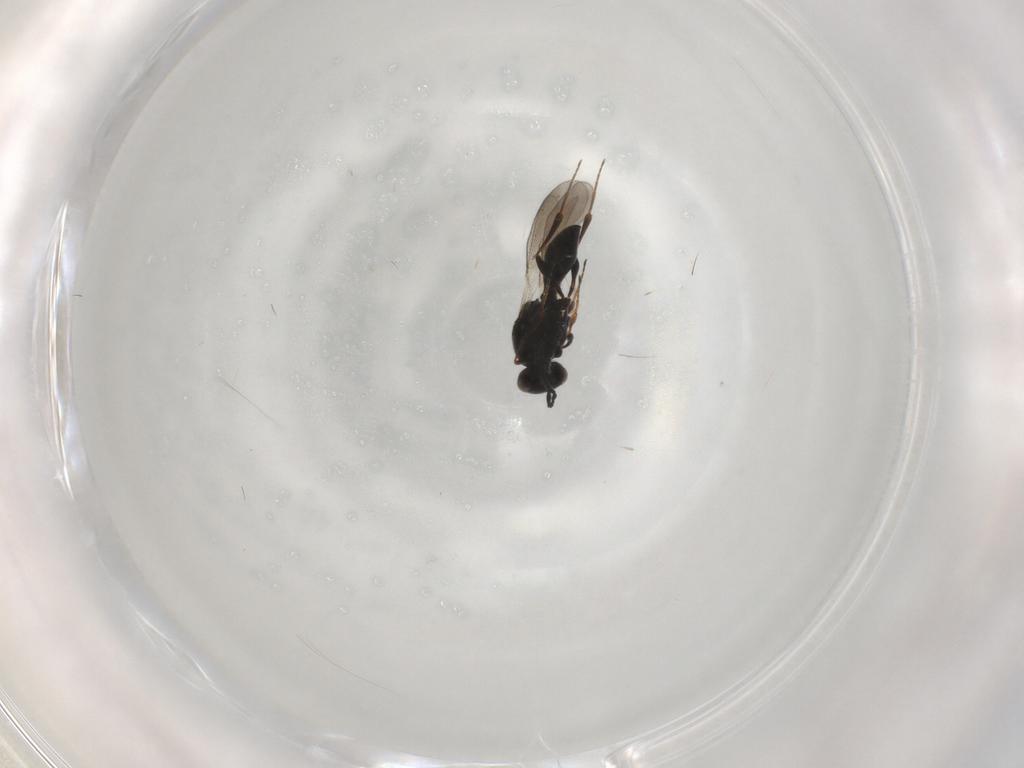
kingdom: Animalia
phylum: Arthropoda
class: Insecta
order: Diptera
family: Mythicomyiidae
